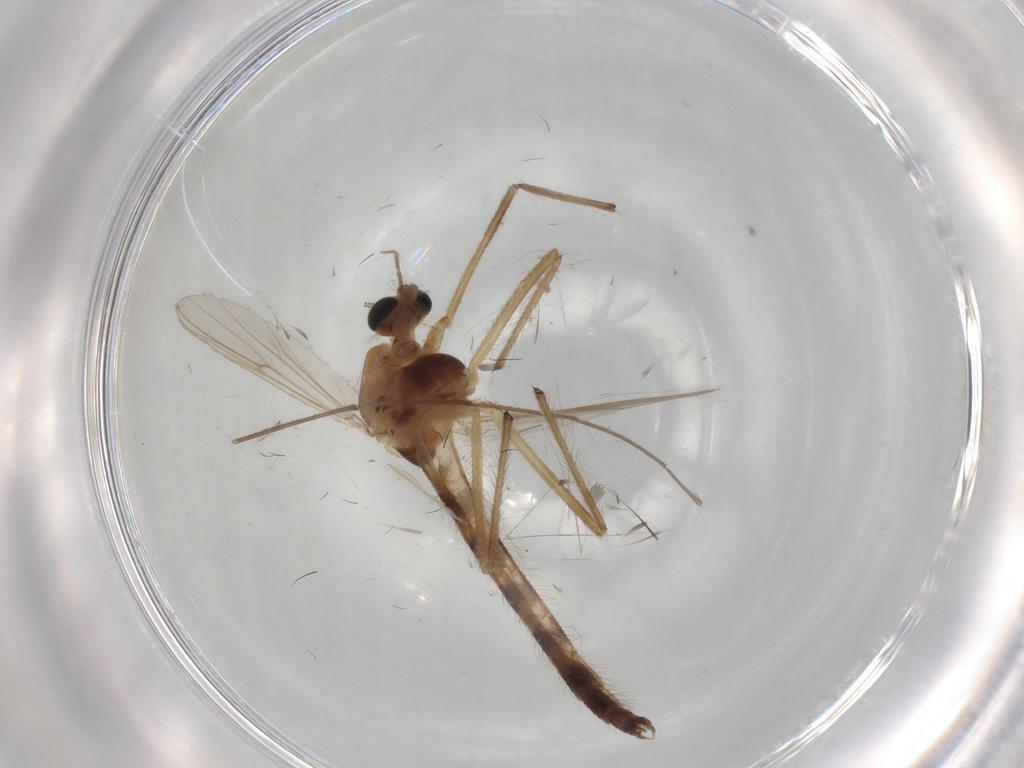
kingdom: Animalia
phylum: Arthropoda
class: Insecta
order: Diptera
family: Chironomidae
